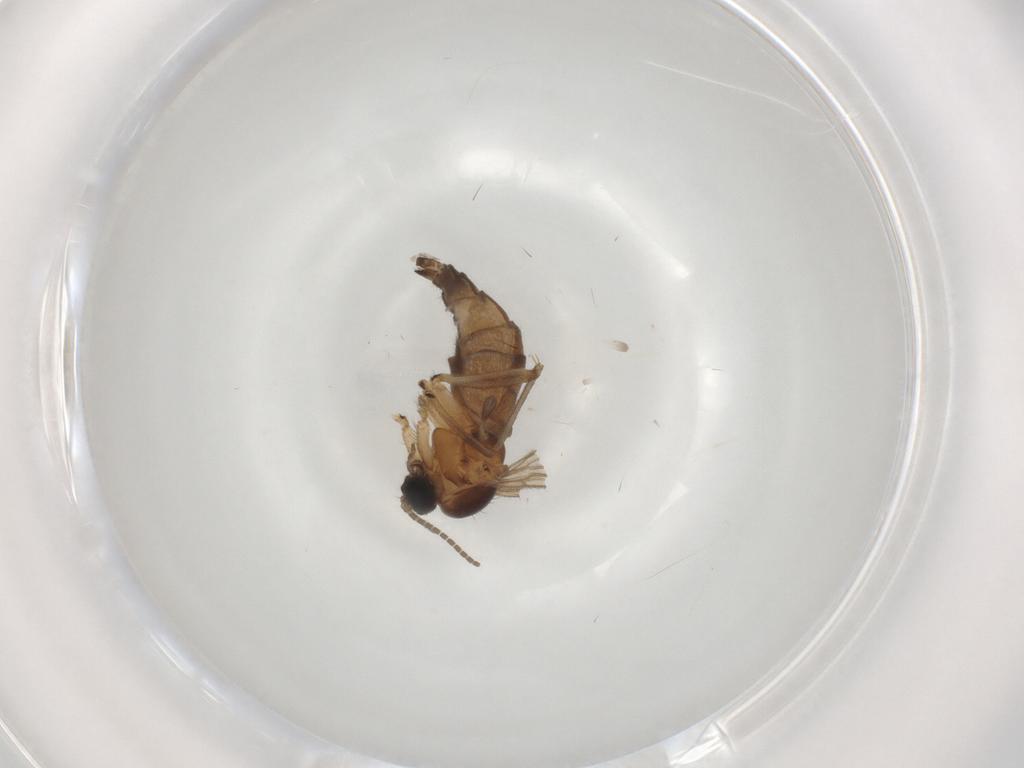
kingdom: Animalia
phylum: Arthropoda
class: Insecta
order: Diptera
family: Sciaridae
